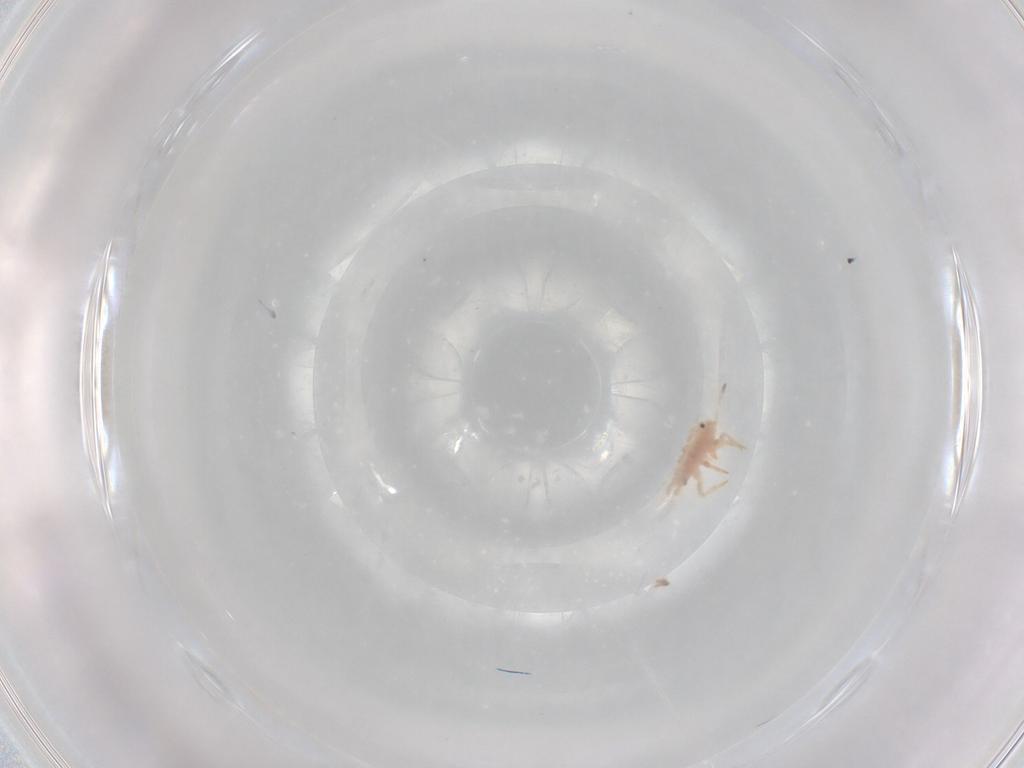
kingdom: Animalia
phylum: Arthropoda
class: Insecta
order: Hemiptera
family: Coccoidea_incertae_sedis
